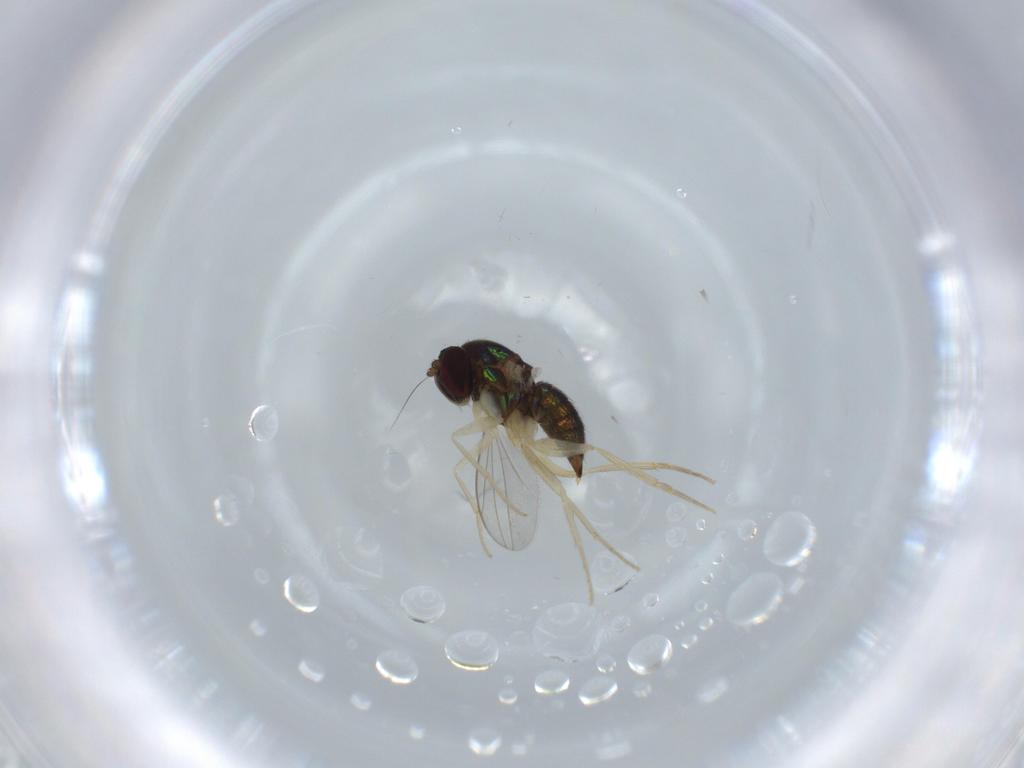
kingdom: Animalia
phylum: Arthropoda
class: Insecta
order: Diptera
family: Dolichopodidae
